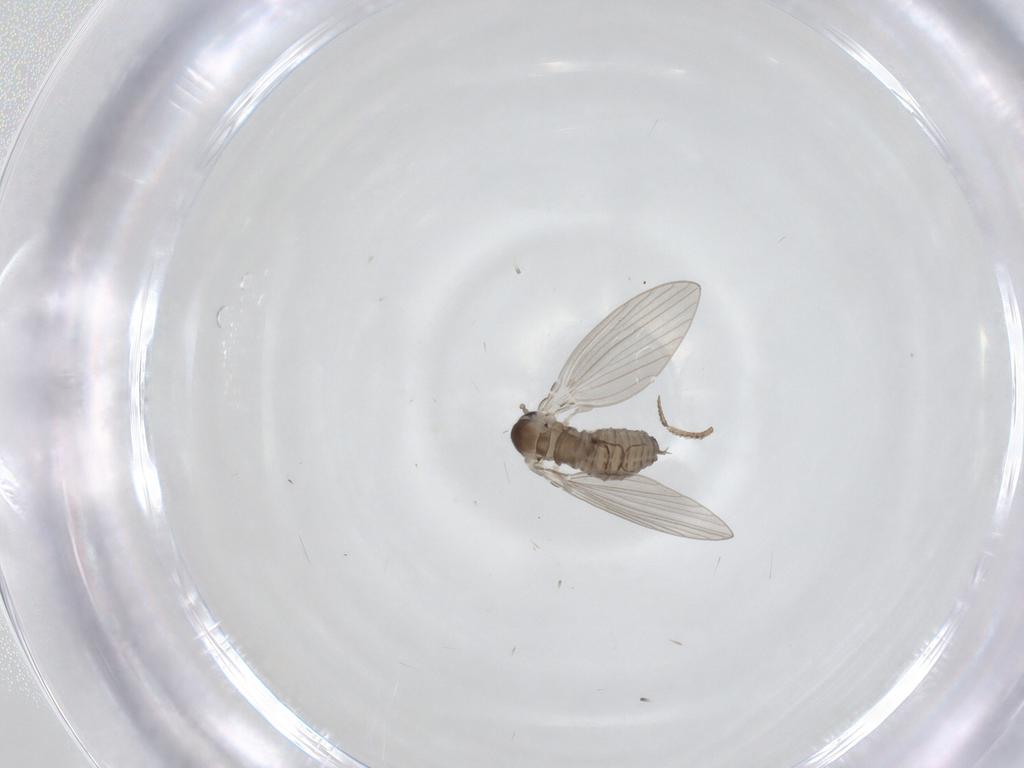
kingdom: Animalia
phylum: Arthropoda
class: Insecta
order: Diptera
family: Psychodidae
